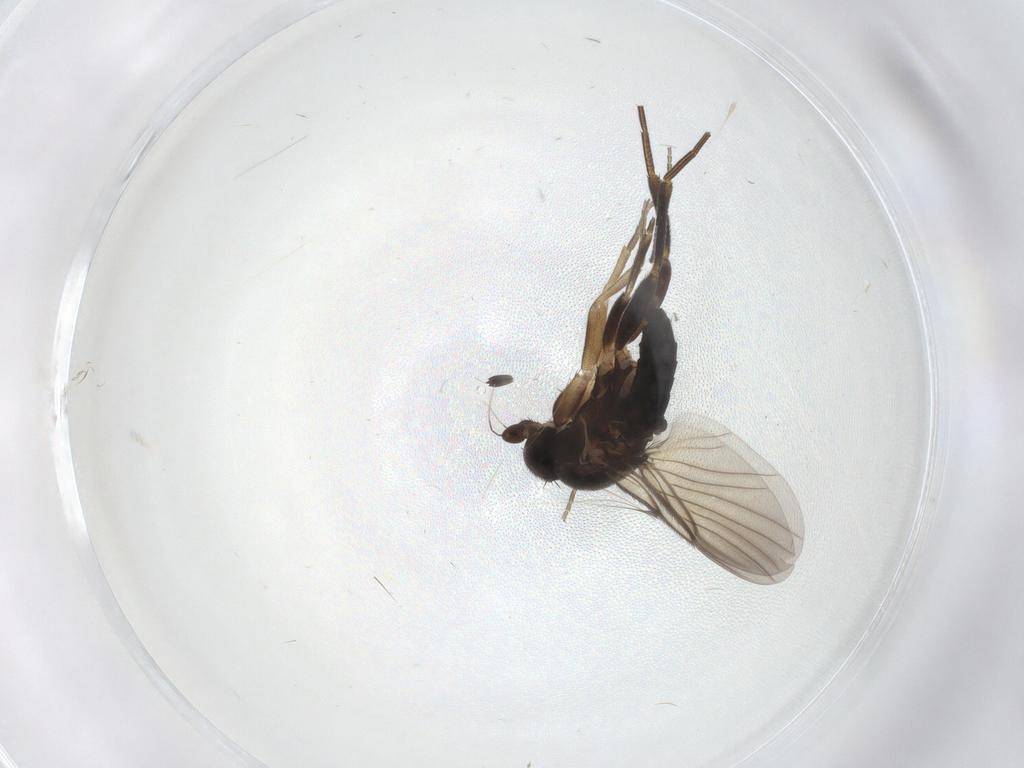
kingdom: Animalia
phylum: Arthropoda
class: Insecta
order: Diptera
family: Sciaridae
